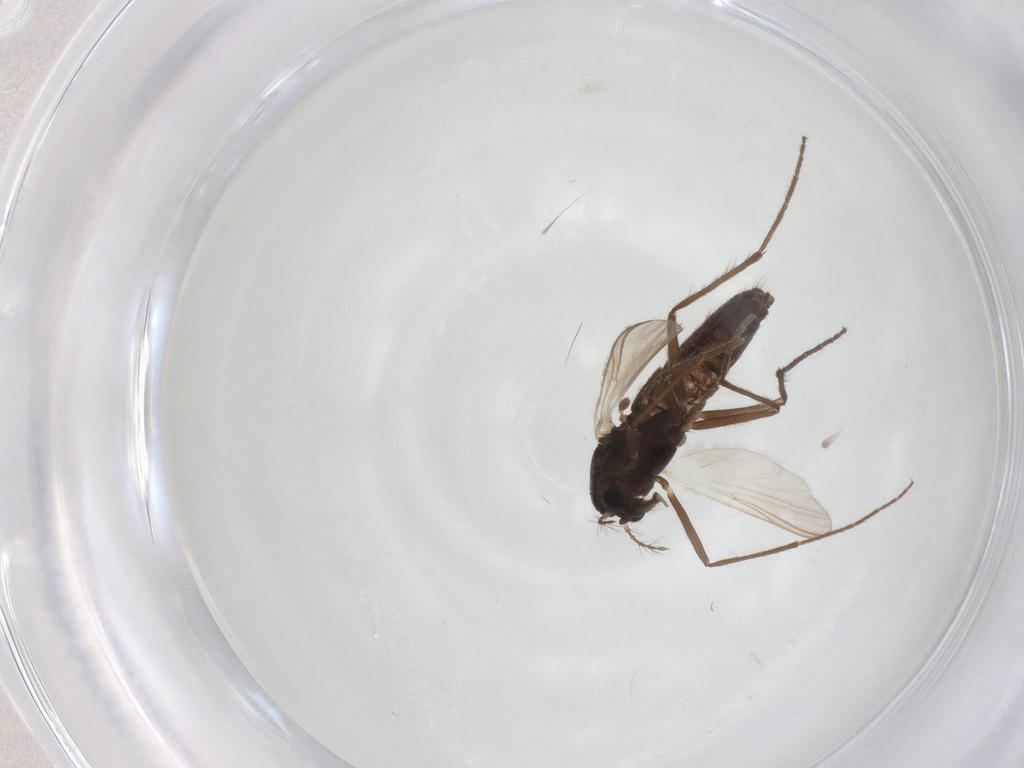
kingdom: Animalia
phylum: Arthropoda
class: Insecta
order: Diptera
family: Chironomidae
